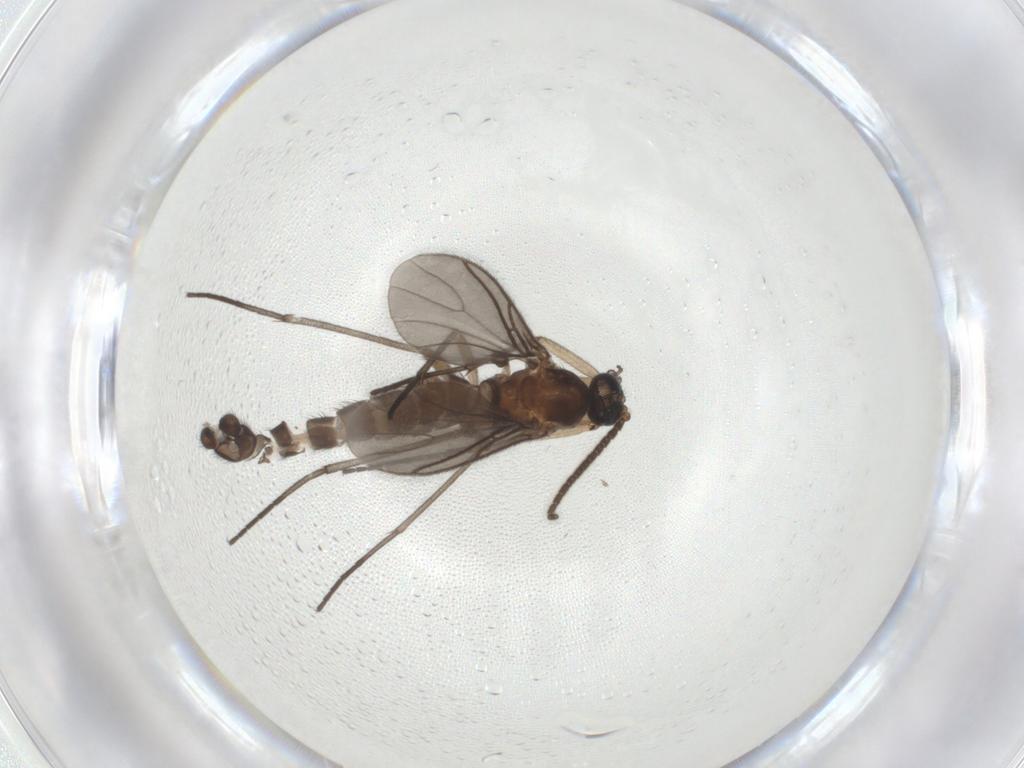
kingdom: Animalia
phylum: Arthropoda
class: Insecta
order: Diptera
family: Sciaridae
